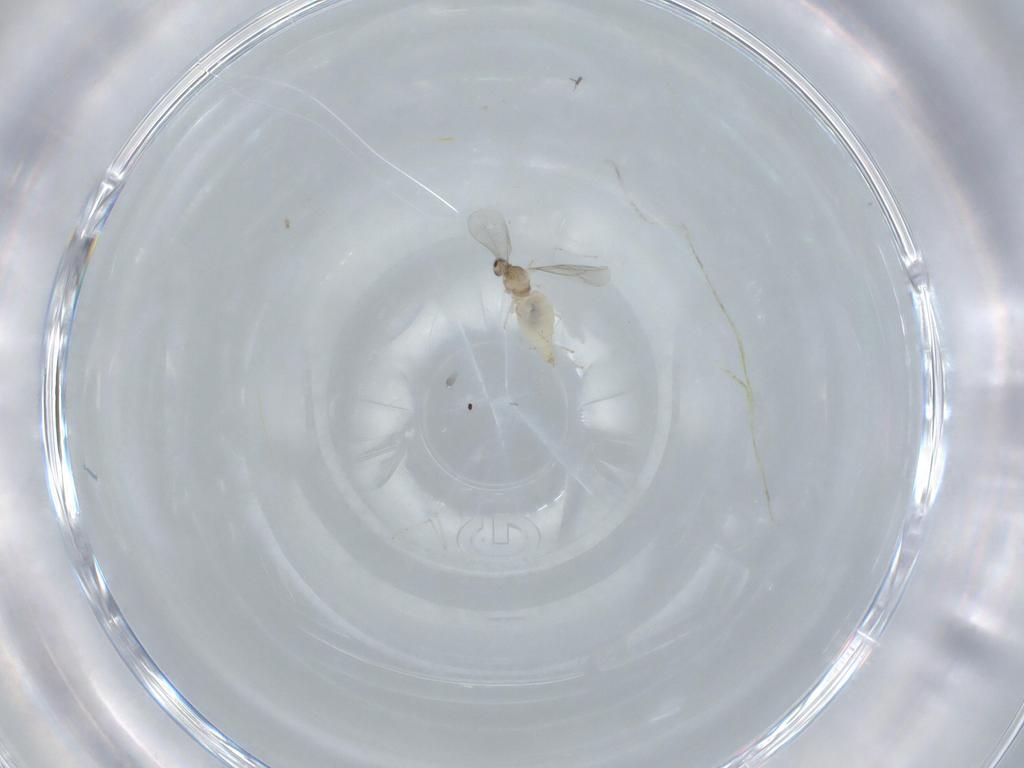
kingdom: Animalia
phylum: Arthropoda
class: Insecta
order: Diptera
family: Cecidomyiidae
